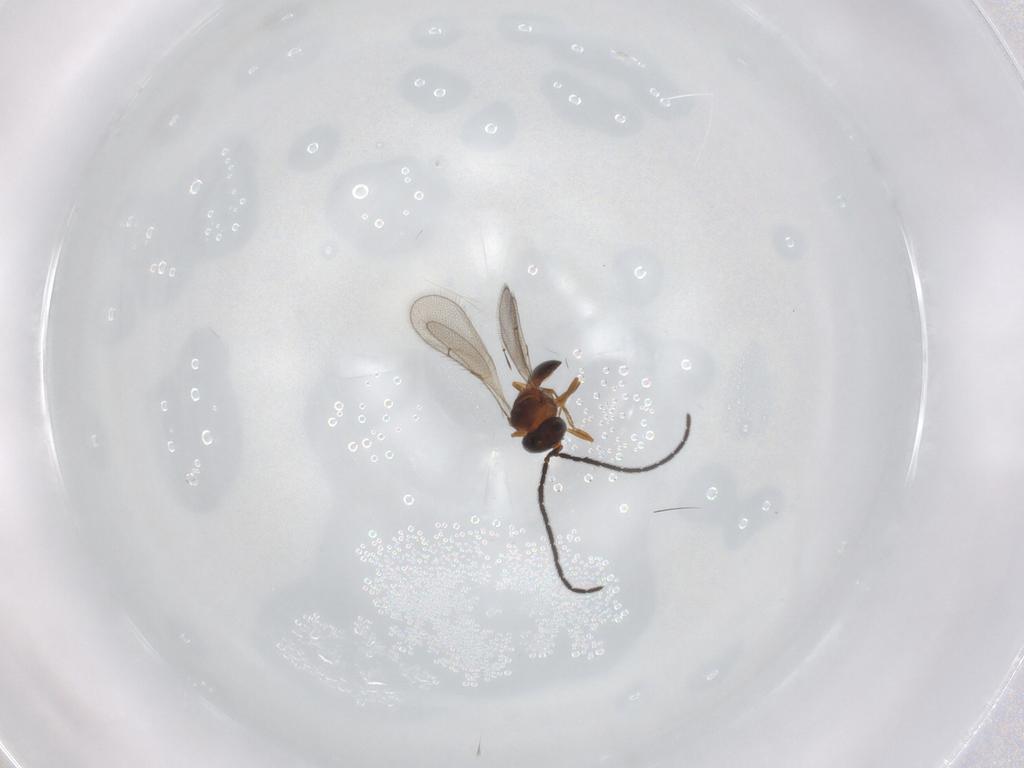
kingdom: Animalia
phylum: Arthropoda
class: Insecta
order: Hymenoptera
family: Scelionidae
